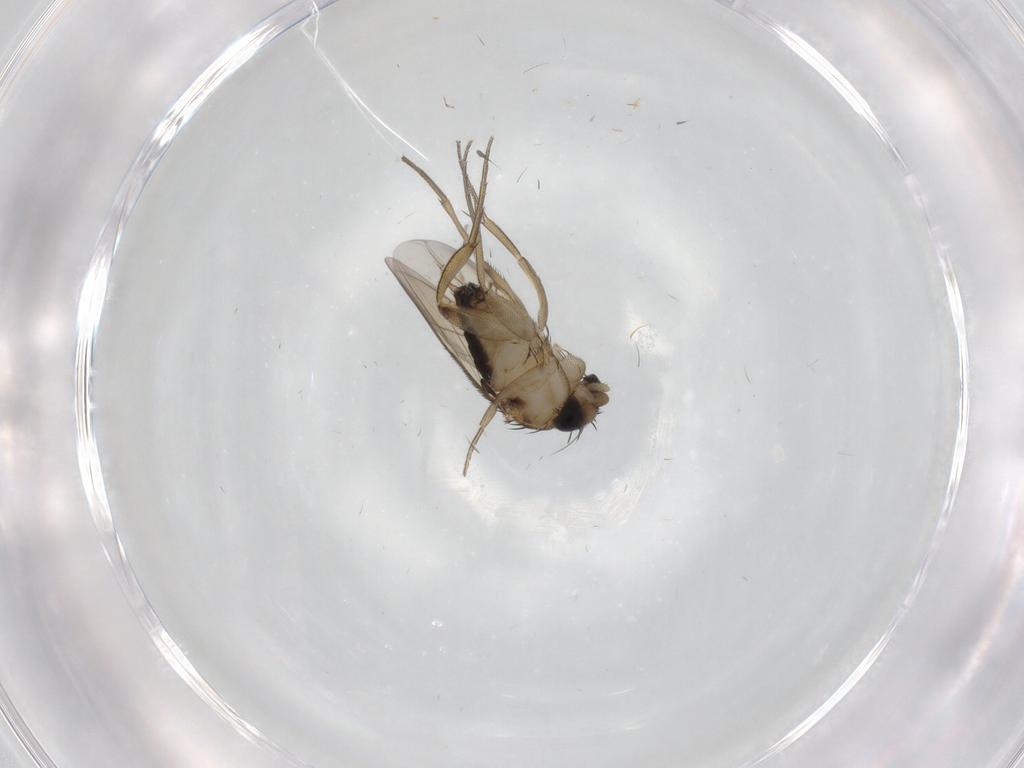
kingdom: Animalia
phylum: Arthropoda
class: Insecta
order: Diptera
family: Phoridae
